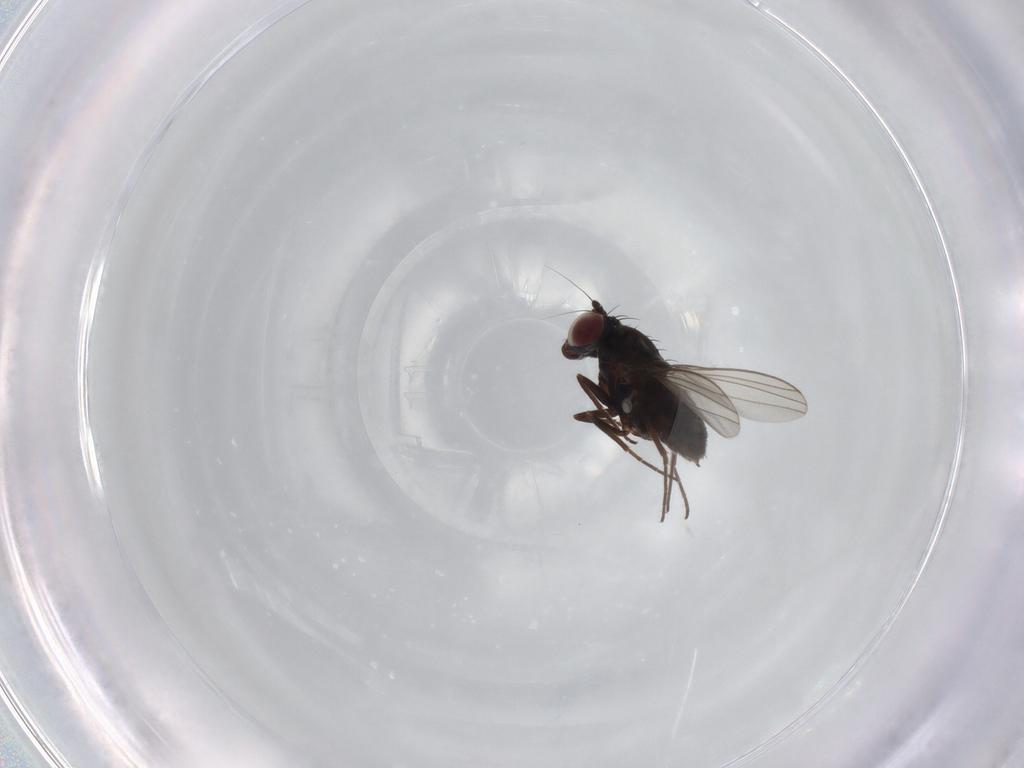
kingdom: Animalia
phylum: Arthropoda
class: Insecta
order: Diptera
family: Dolichopodidae
